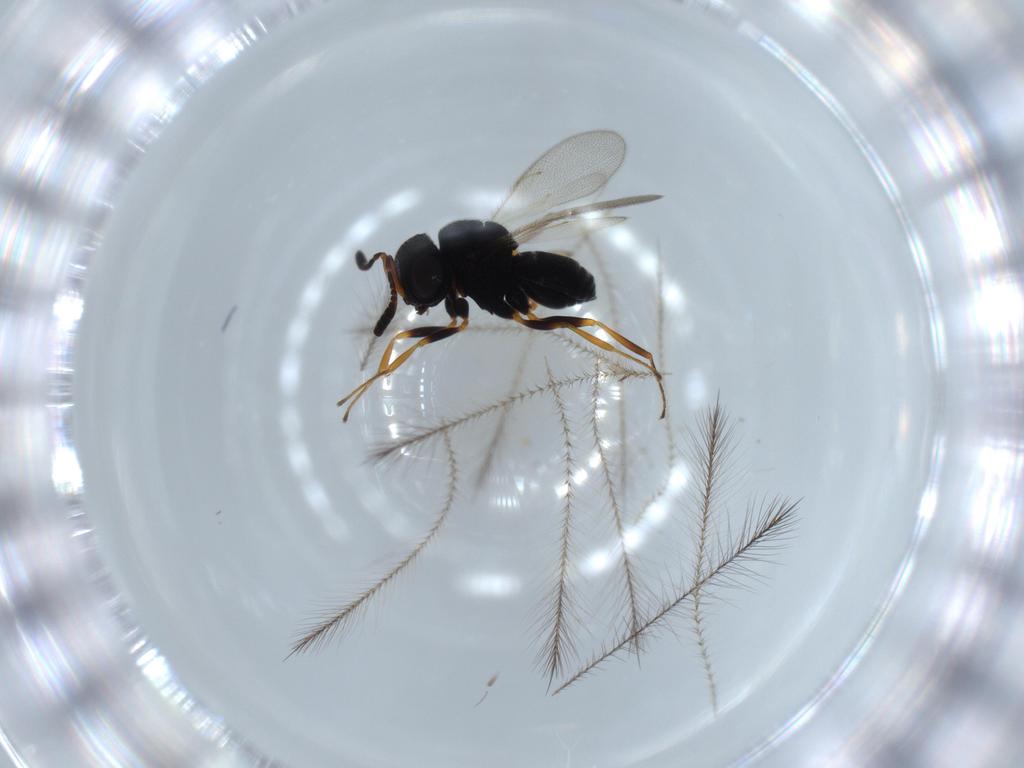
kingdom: Animalia
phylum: Arthropoda
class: Insecta
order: Hymenoptera
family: Scelionidae
